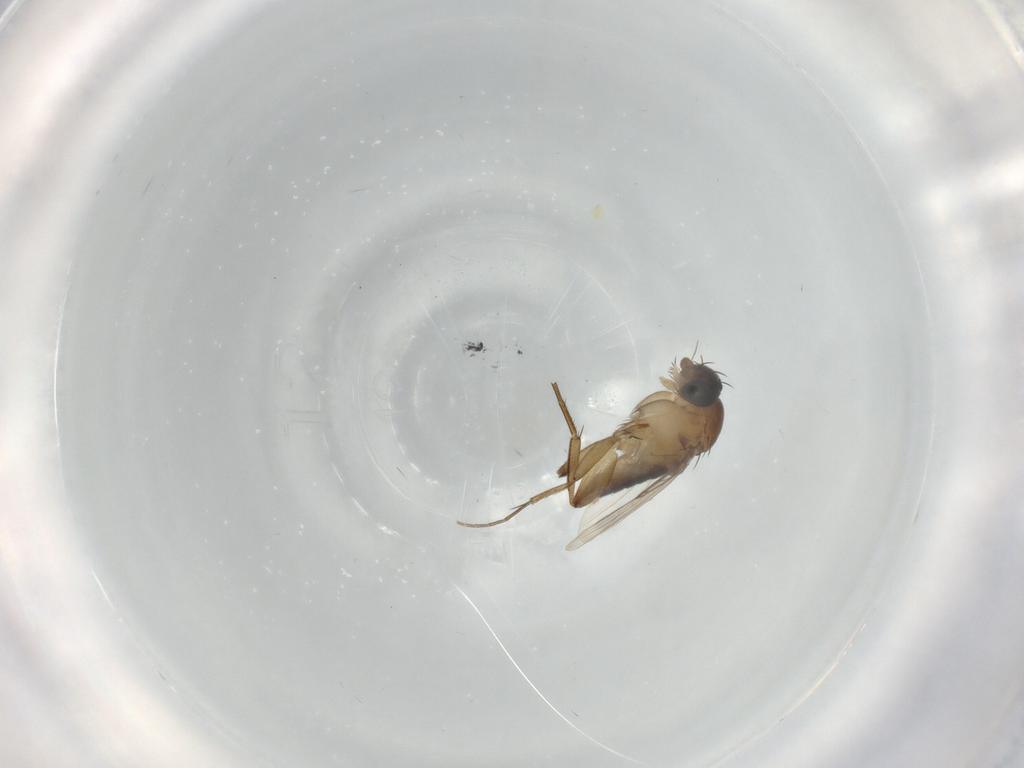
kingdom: Animalia
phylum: Arthropoda
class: Insecta
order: Diptera
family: Phoridae
